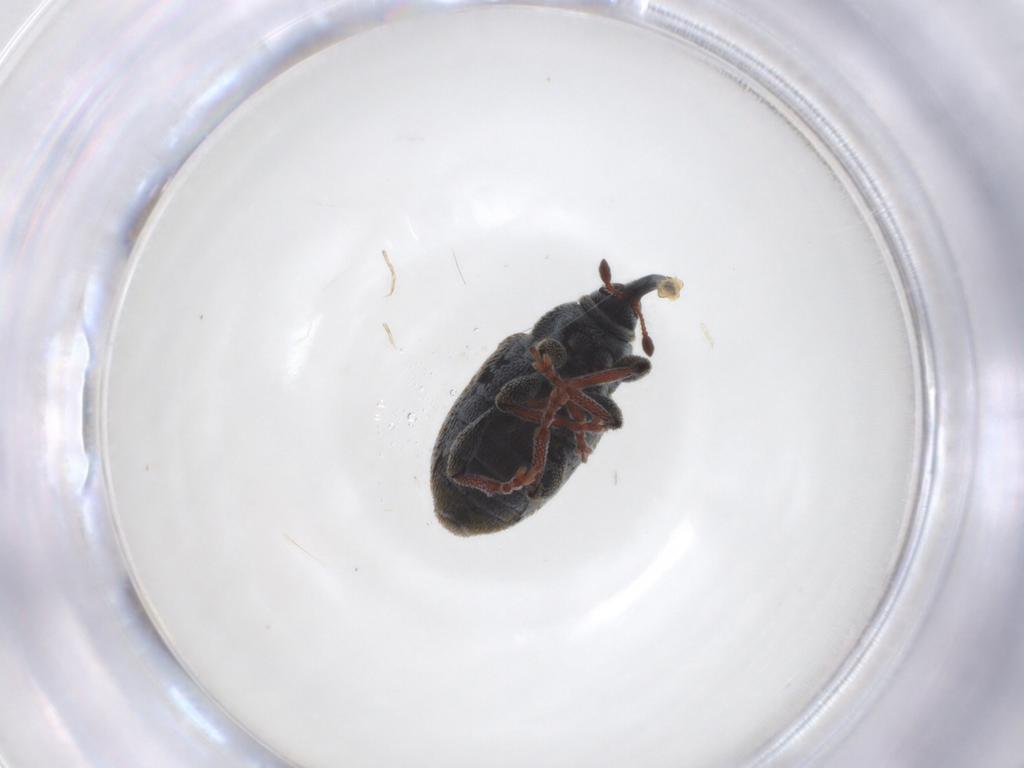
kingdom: Animalia
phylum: Arthropoda
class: Insecta
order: Coleoptera
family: Curculionidae
